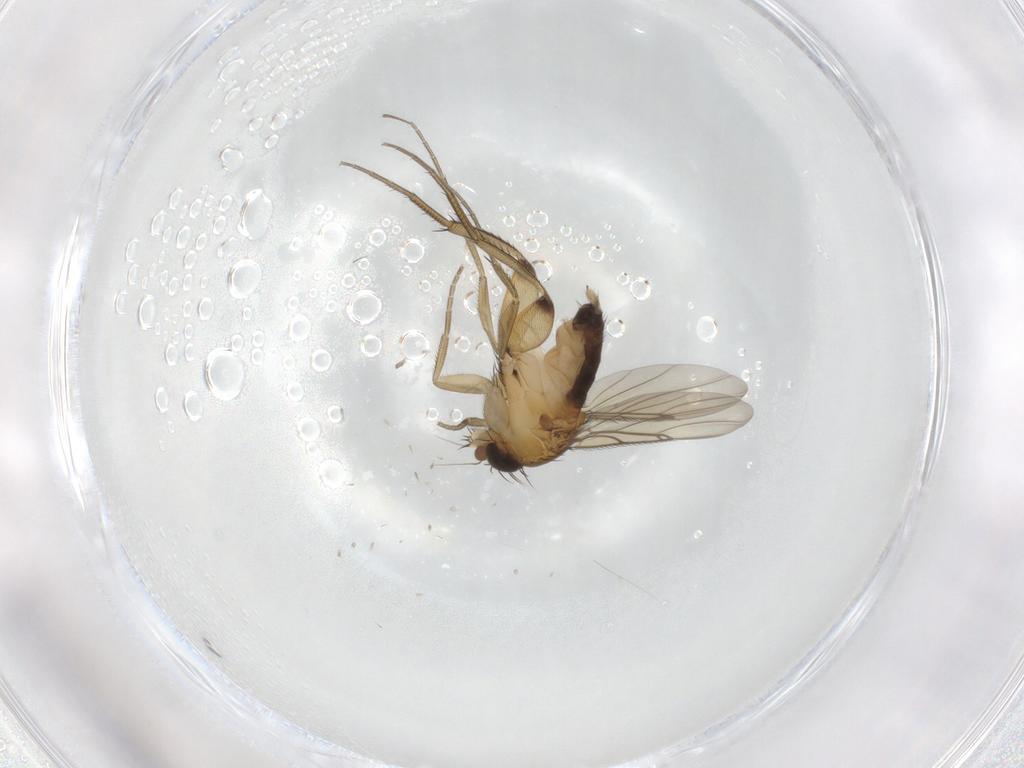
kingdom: Animalia
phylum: Arthropoda
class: Insecta
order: Diptera
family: Phoridae
